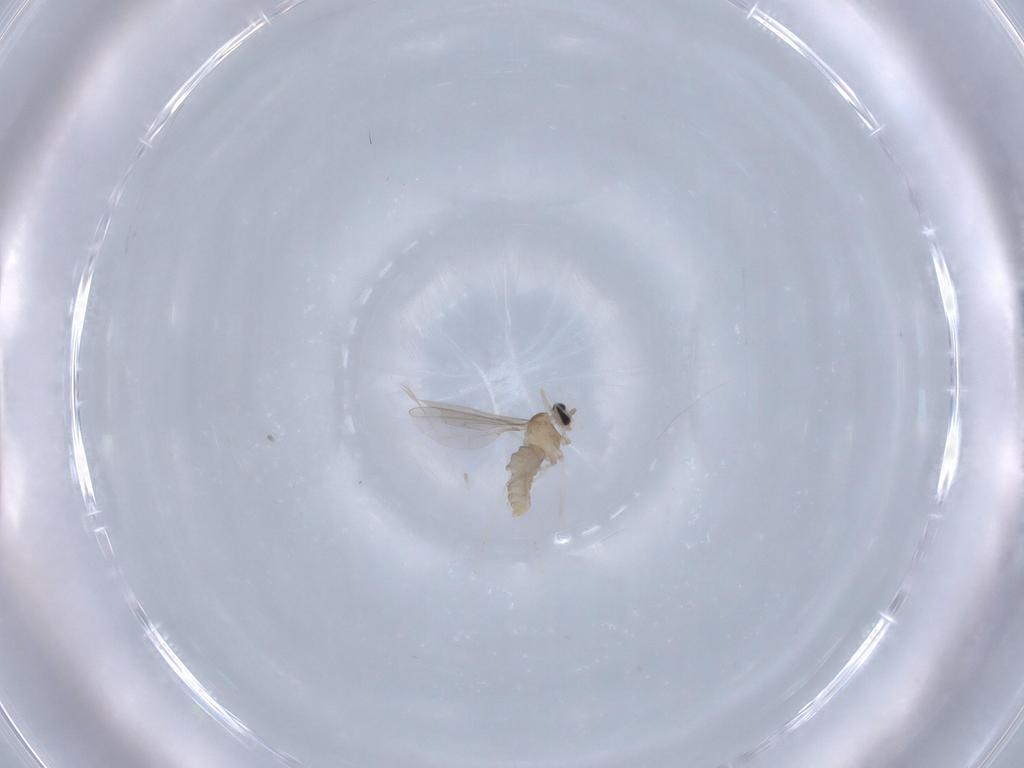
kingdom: Animalia
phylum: Arthropoda
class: Insecta
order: Diptera
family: Cecidomyiidae
